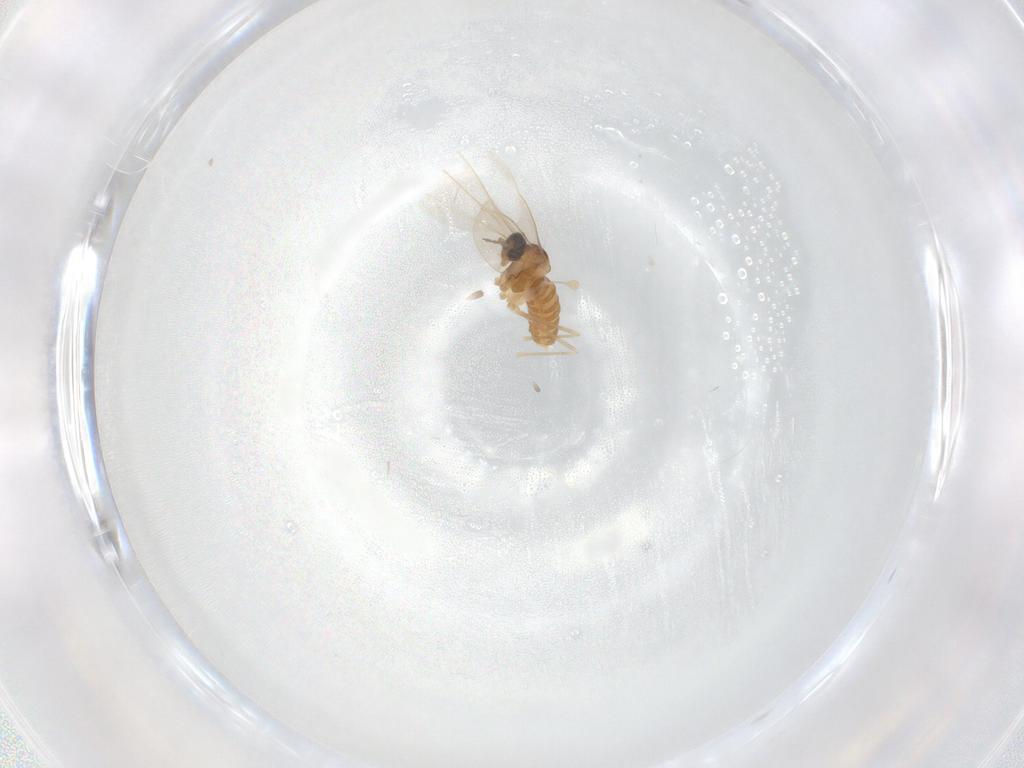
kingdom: Animalia
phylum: Arthropoda
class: Insecta
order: Diptera
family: Cecidomyiidae
